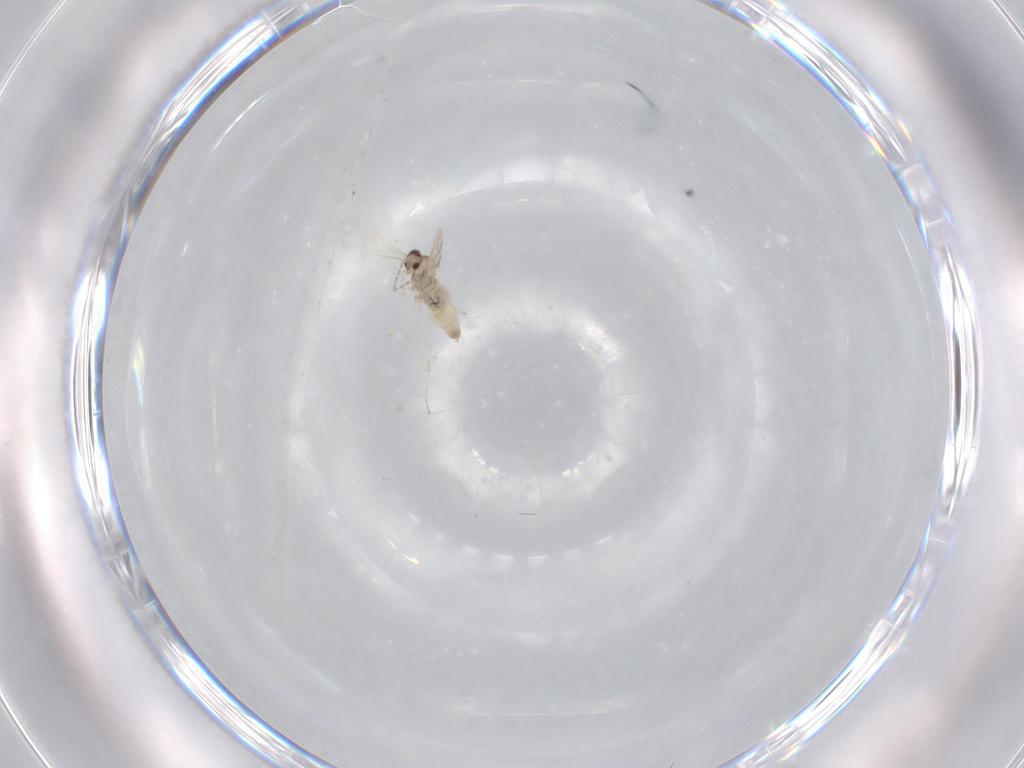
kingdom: Animalia
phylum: Arthropoda
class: Insecta
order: Diptera
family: Cecidomyiidae
